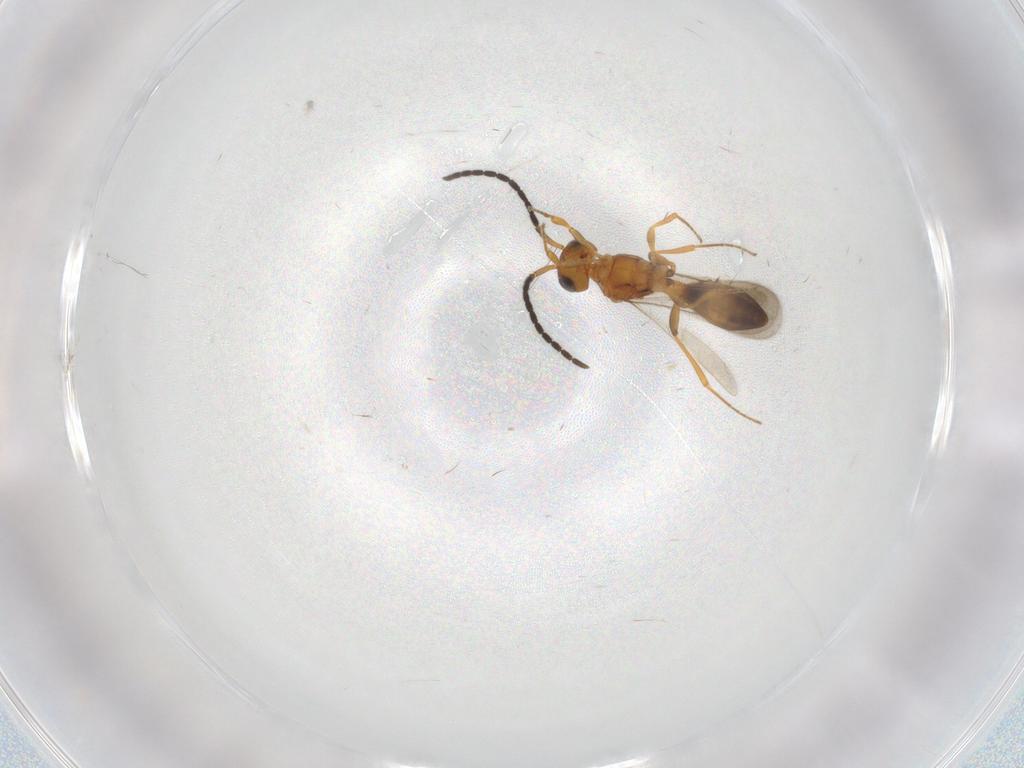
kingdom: Animalia
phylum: Arthropoda
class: Insecta
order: Hymenoptera
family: Scelionidae
